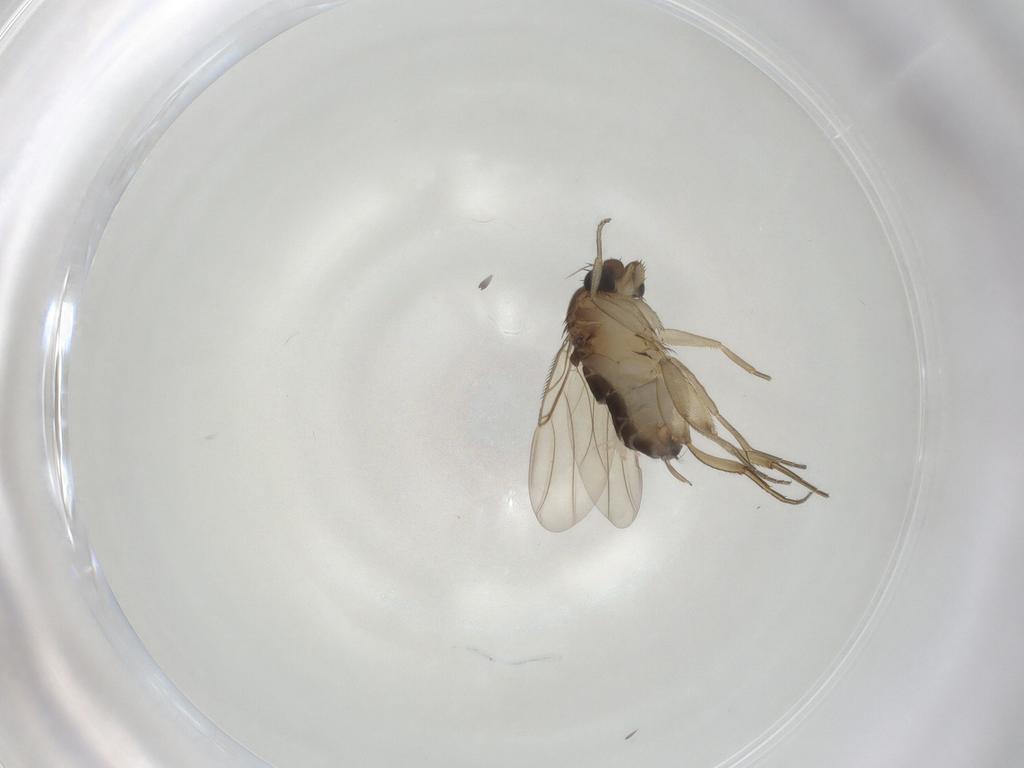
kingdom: Animalia
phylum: Arthropoda
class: Insecta
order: Diptera
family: Phoridae
